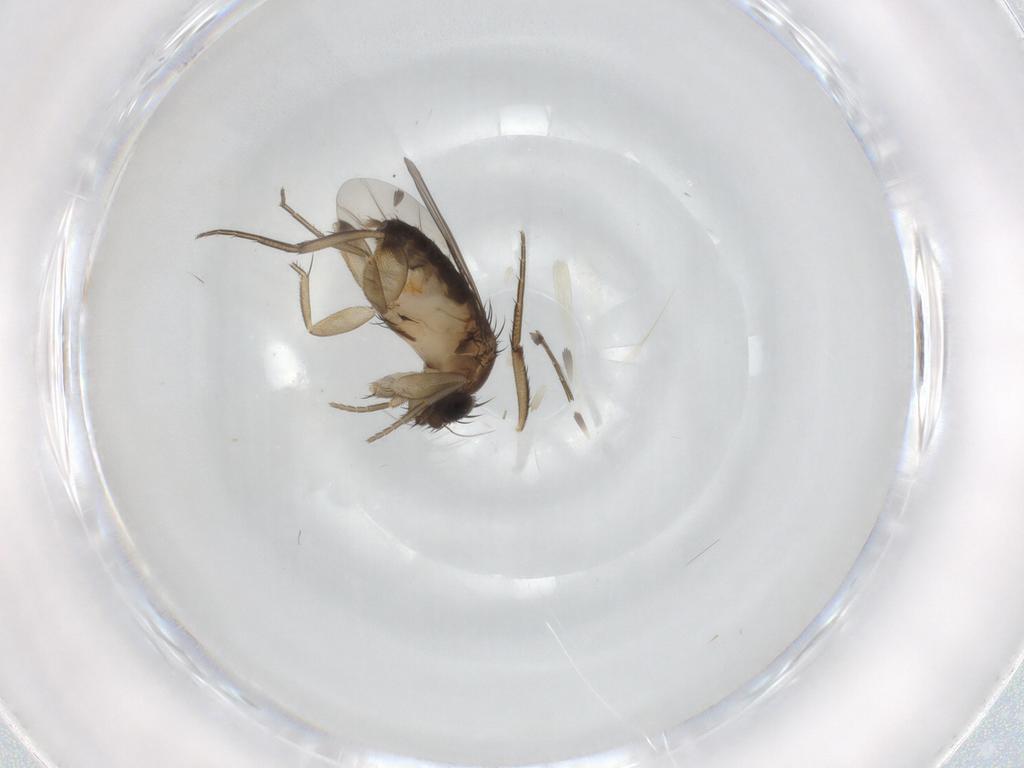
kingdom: Animalia
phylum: Arthropoda
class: Insecta
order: Diptera
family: Phoridae
